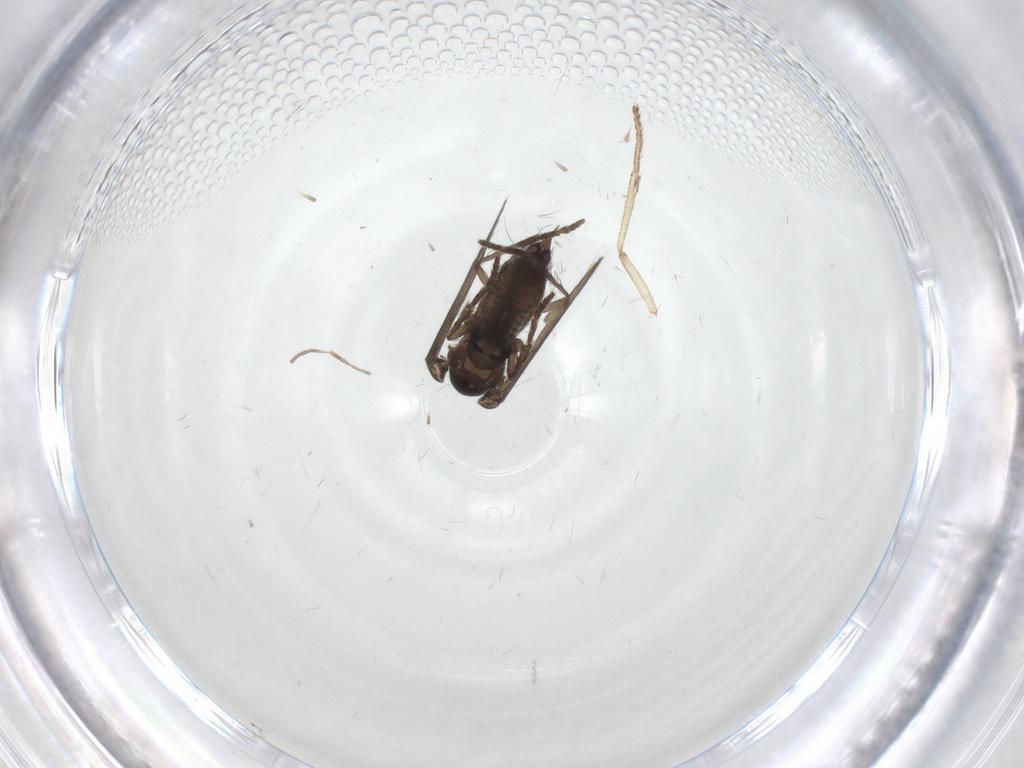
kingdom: Animalia
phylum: Arthropoda
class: Insecta
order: Diptera
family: Psychodidae
